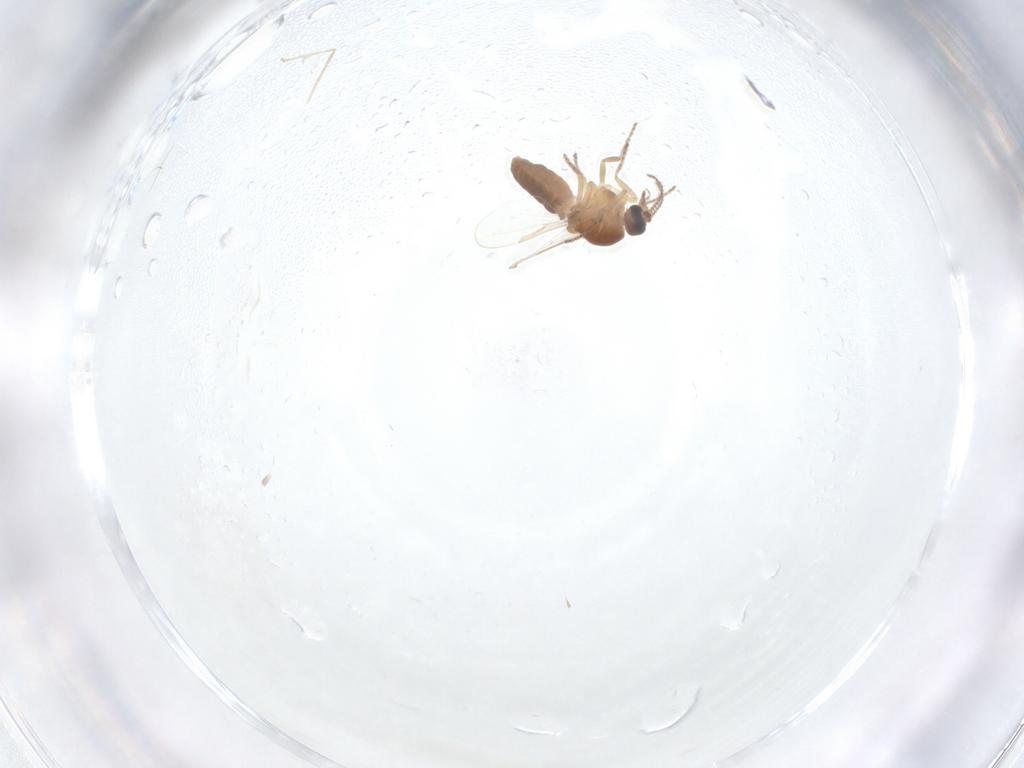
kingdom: Animalia
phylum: Arthropoda
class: Insecta
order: Diptera
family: Ceratopogonidae
